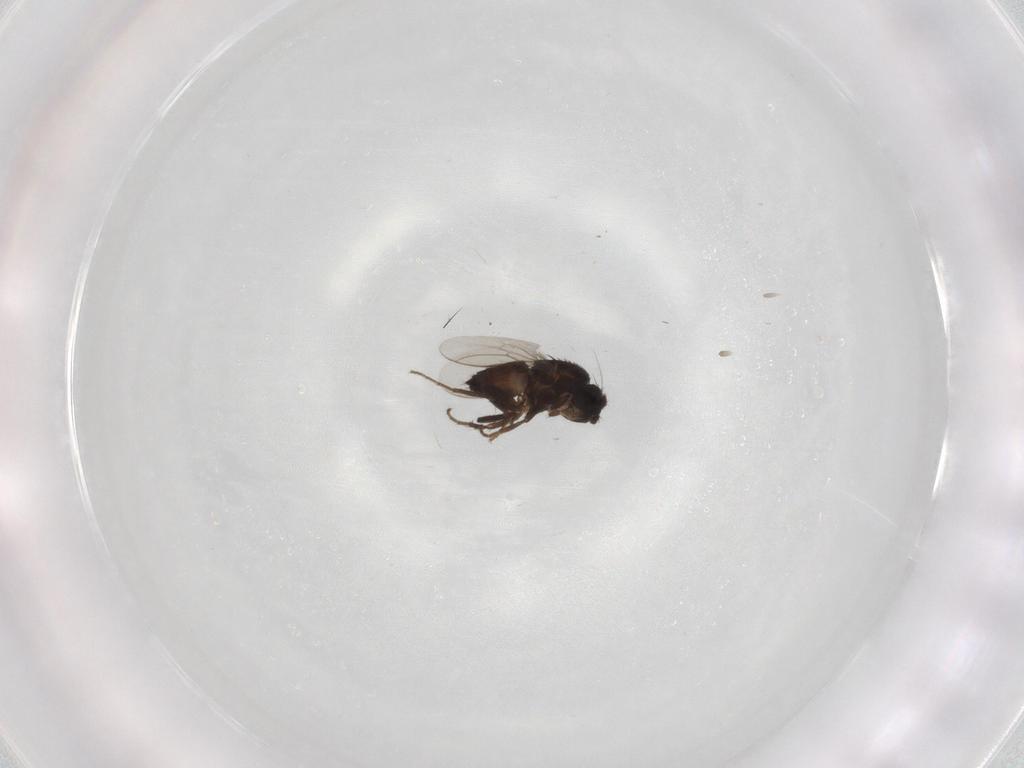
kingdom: Animalia
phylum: Arthropoda
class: Insecta
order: Diptera
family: Sphaeroceridae
